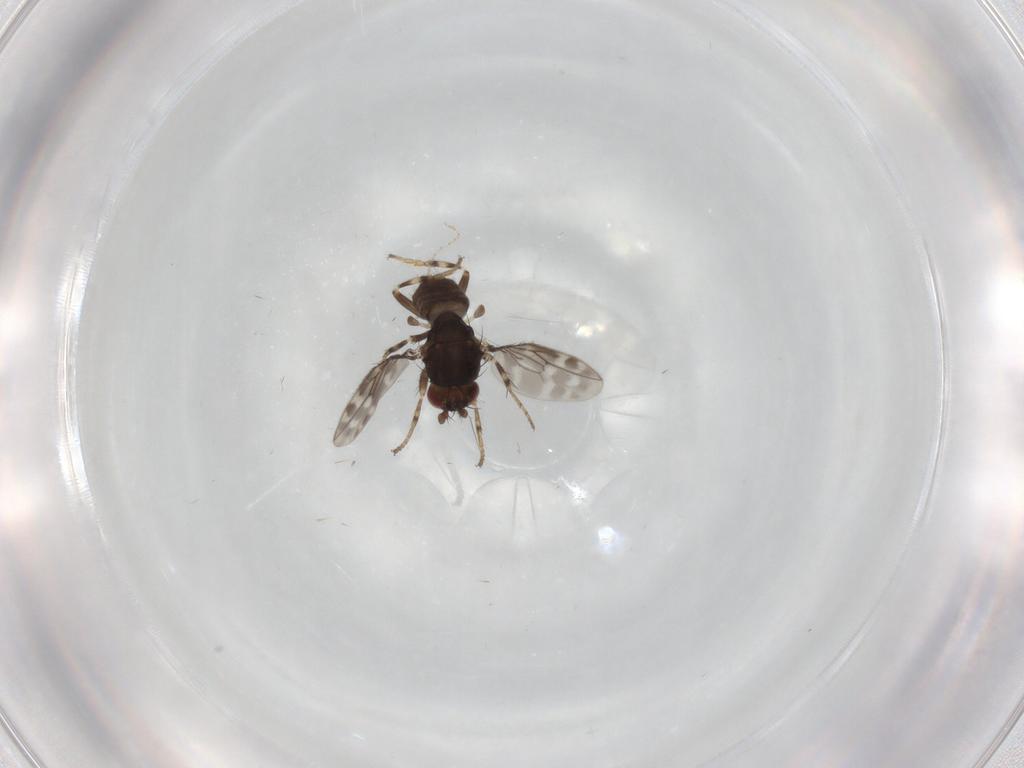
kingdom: Animalia
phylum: Arthropoda
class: Insecta
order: Diptera
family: Sphaeroceridae
